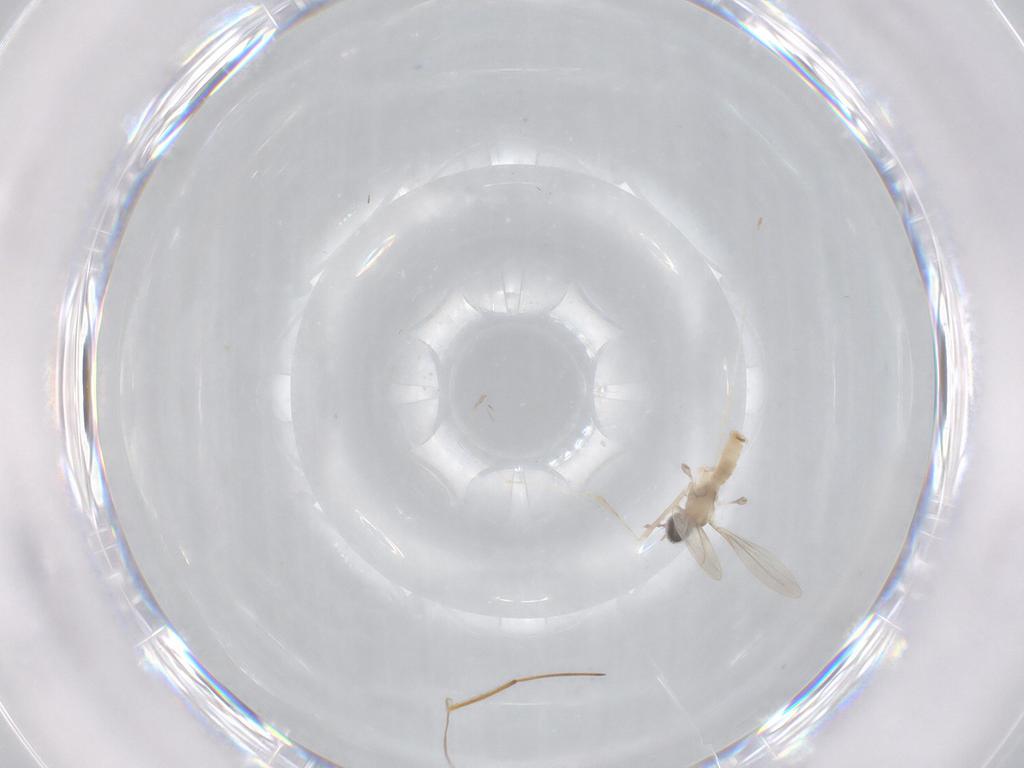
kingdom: Animalia
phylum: Arthropoda
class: Insecta
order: Diptera
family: Chironomidae
